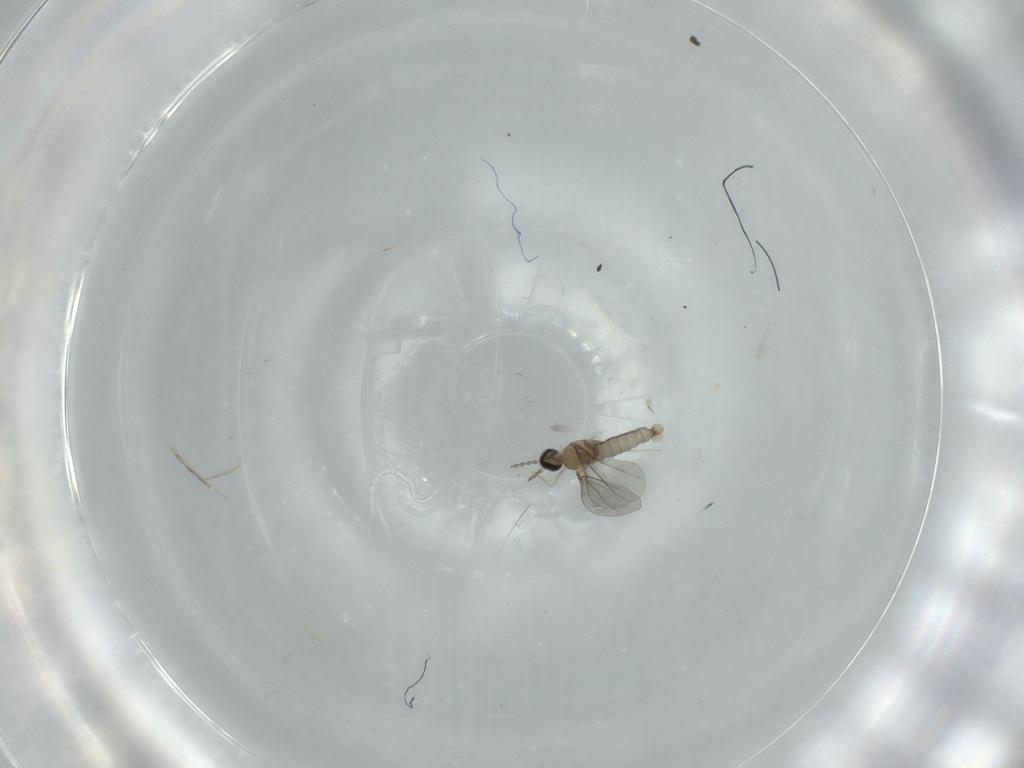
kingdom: Animalia
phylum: Arthropoda
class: Insecta
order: Diptera
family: Cecidomyiidae
